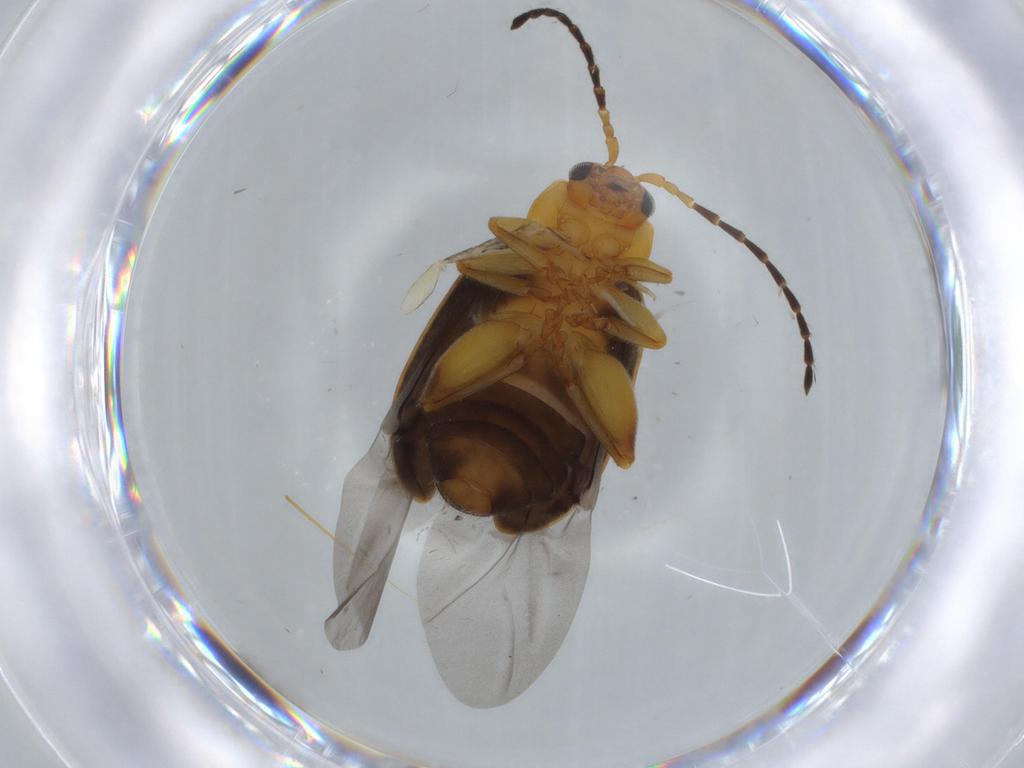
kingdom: Animalia
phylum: Arthropoda
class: Insecta
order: Coleoptera
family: Chrysomelidae
